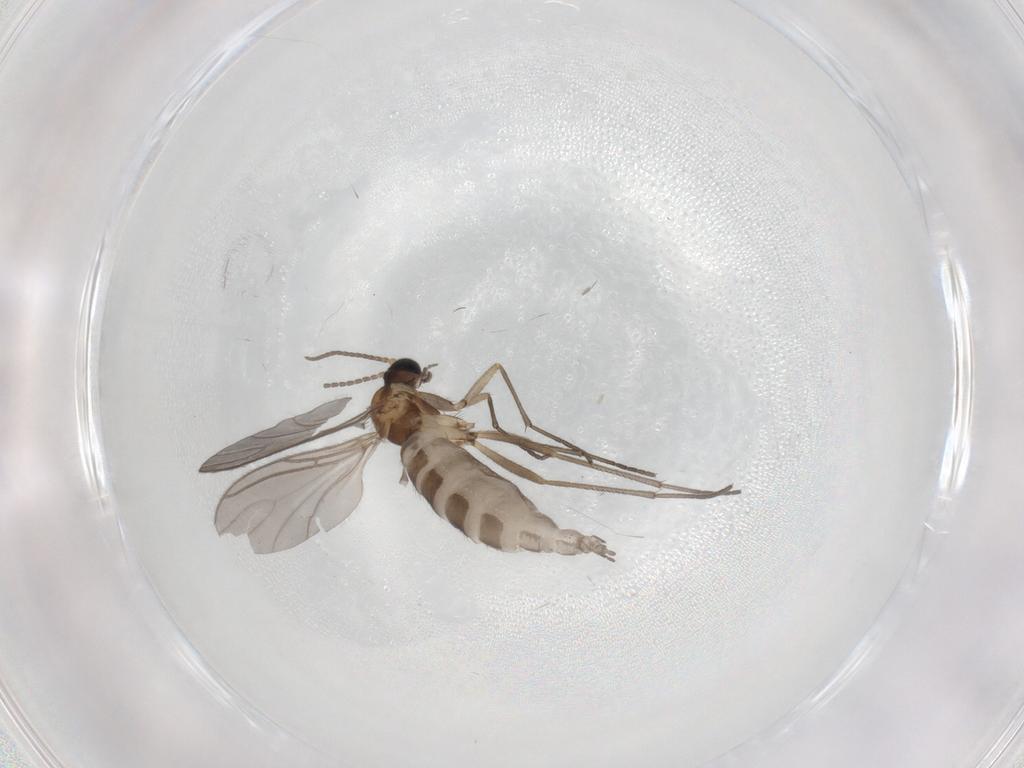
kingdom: Animalia
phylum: Arthropoda
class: Insecta
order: Diptera
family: Sciaridae
